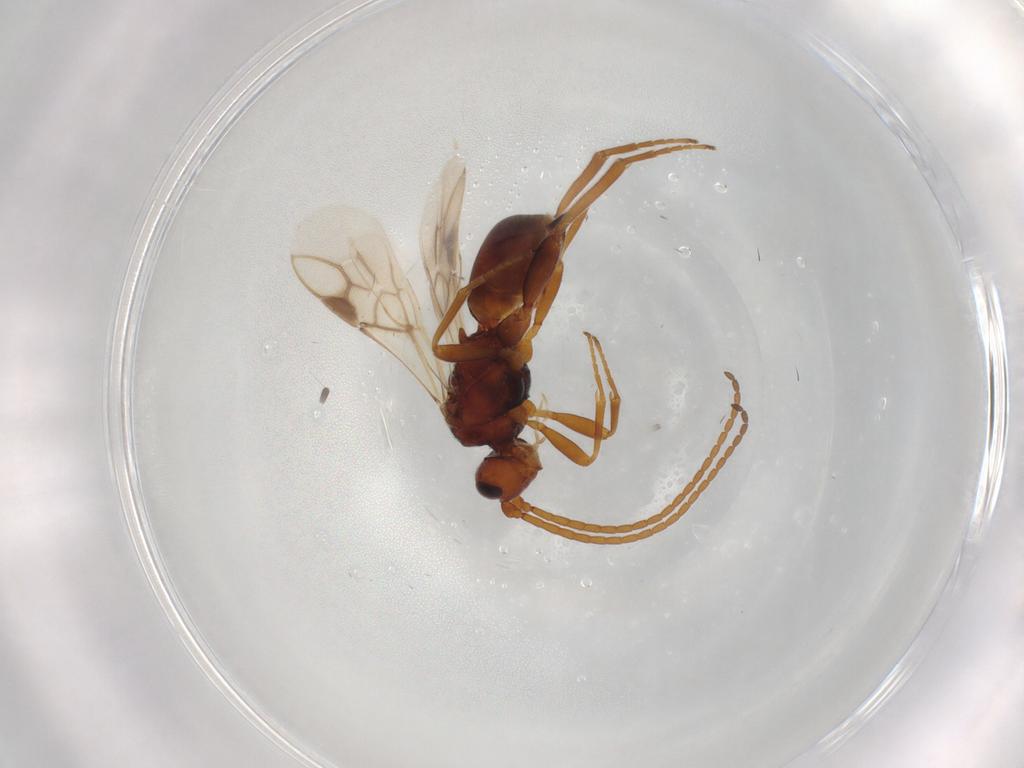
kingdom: Animalia
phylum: Arthropoda
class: Insecta
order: Hymenoptera
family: Braconidae
